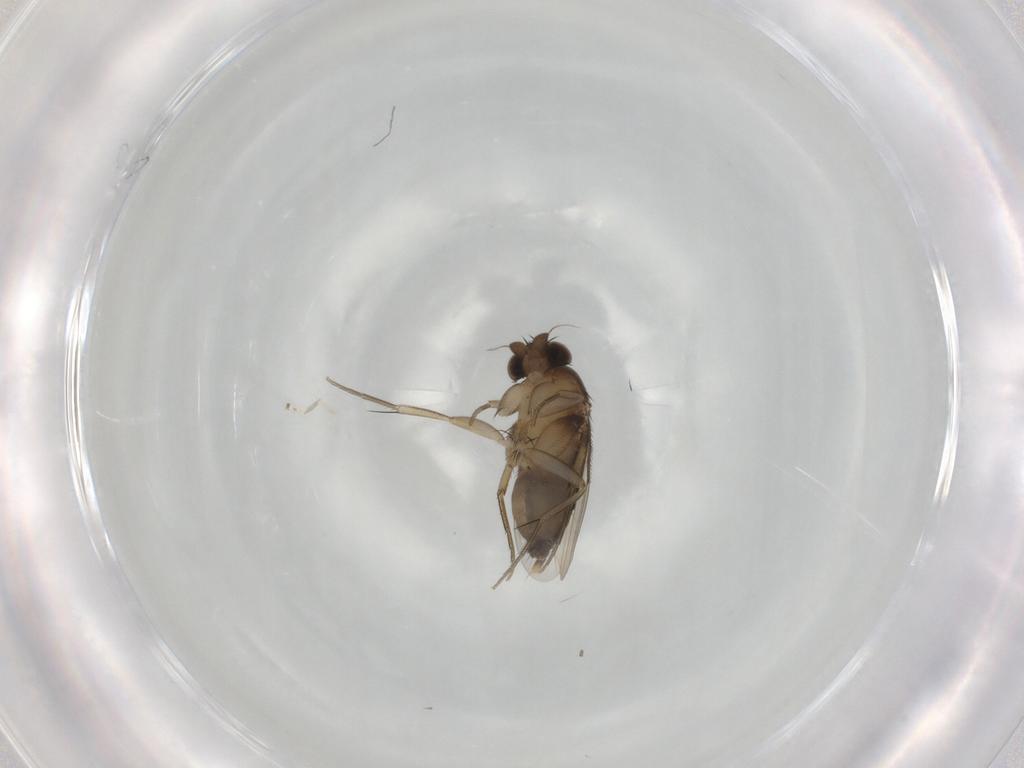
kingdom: Animalia
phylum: Arthropoda
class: Insecta
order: Diptera
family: Phoridae
